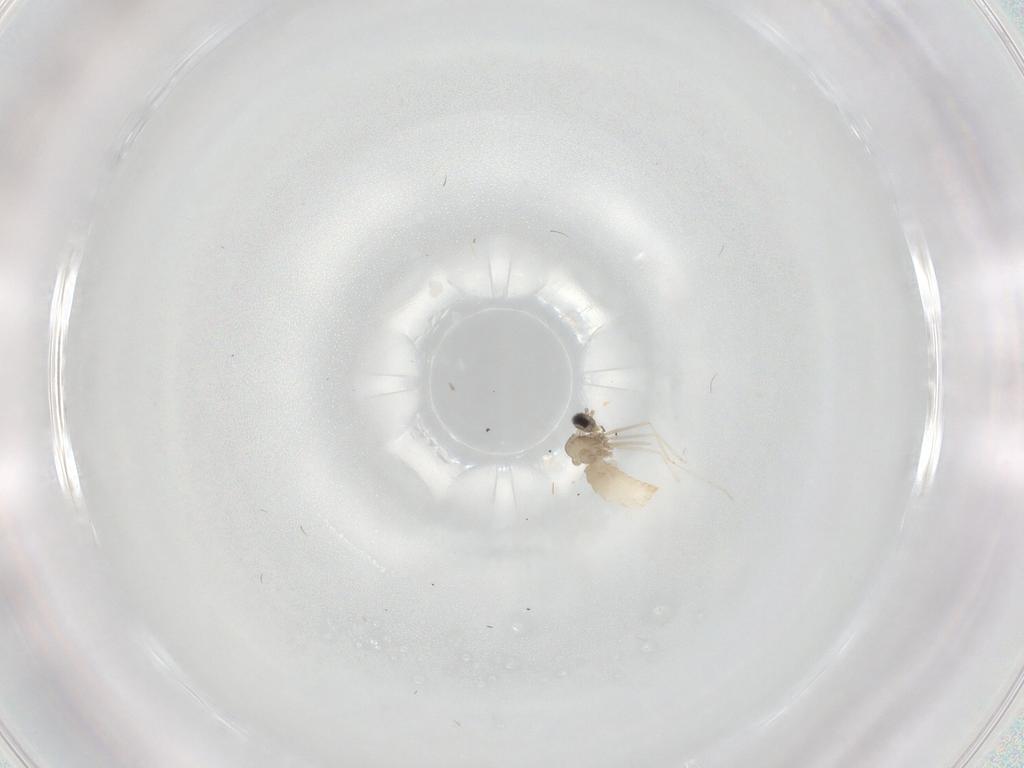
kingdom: Animalia
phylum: Arthropoda
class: Insecta
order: Diptera
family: Cecidomyiidae
